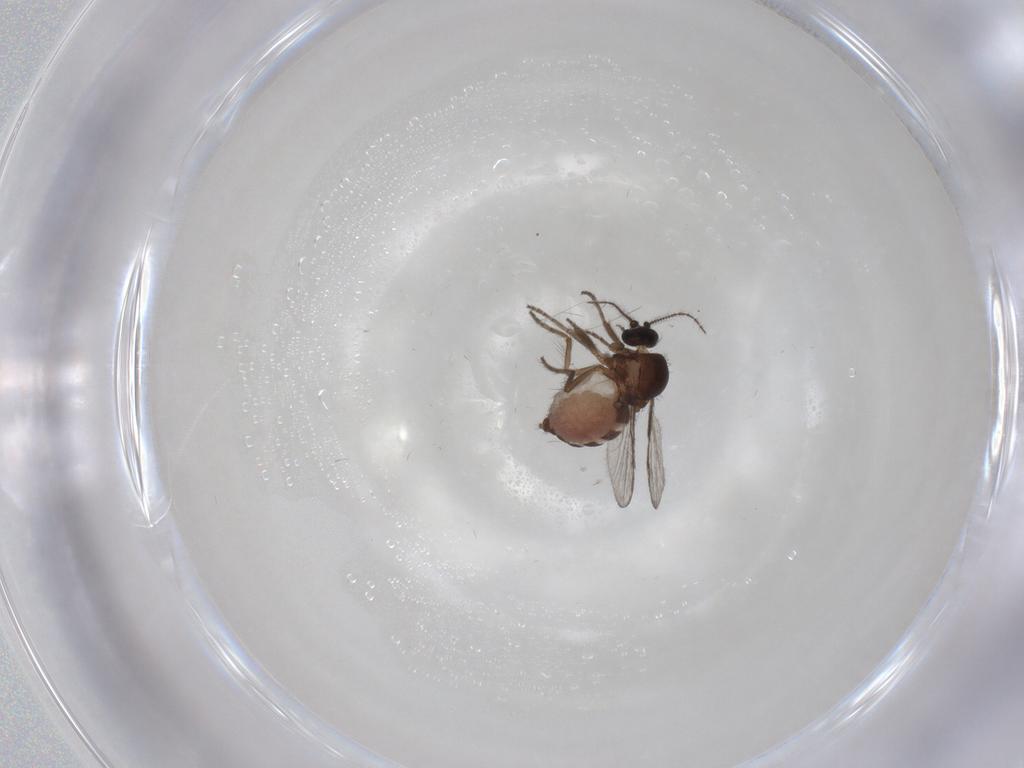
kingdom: Animalia
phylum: Arthropoda
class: Insecta
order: Diptera
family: Ceratopogonidae
